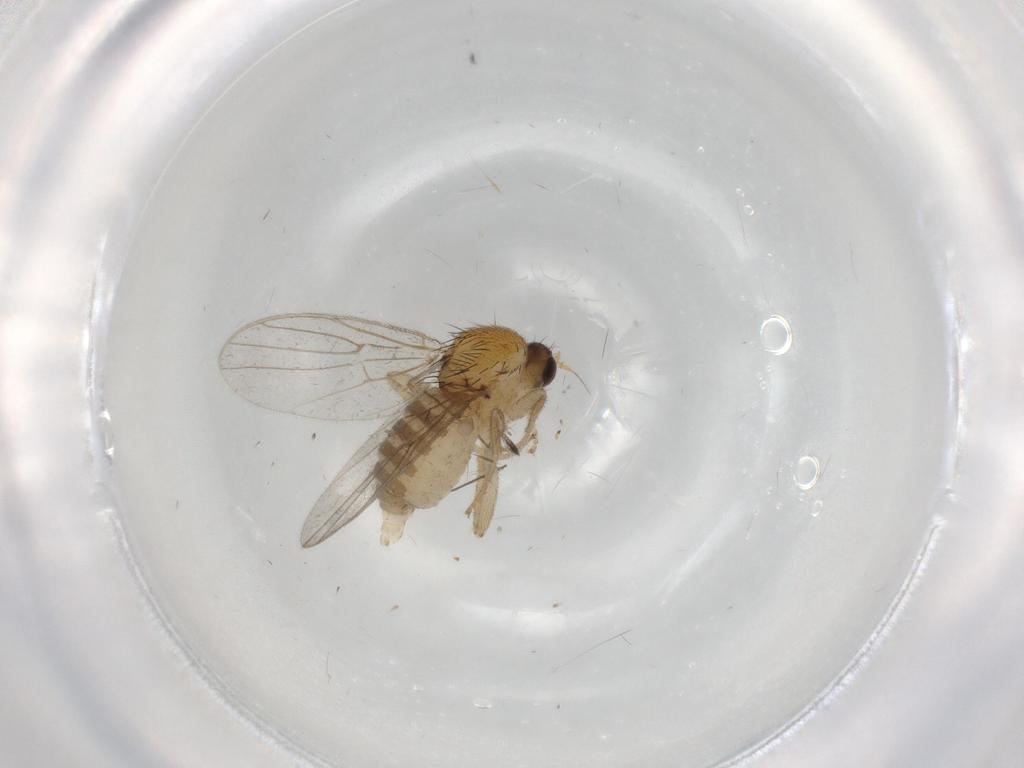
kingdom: Animalia
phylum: Arthropoda
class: Insecta
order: Diptera
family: Hybotidae
